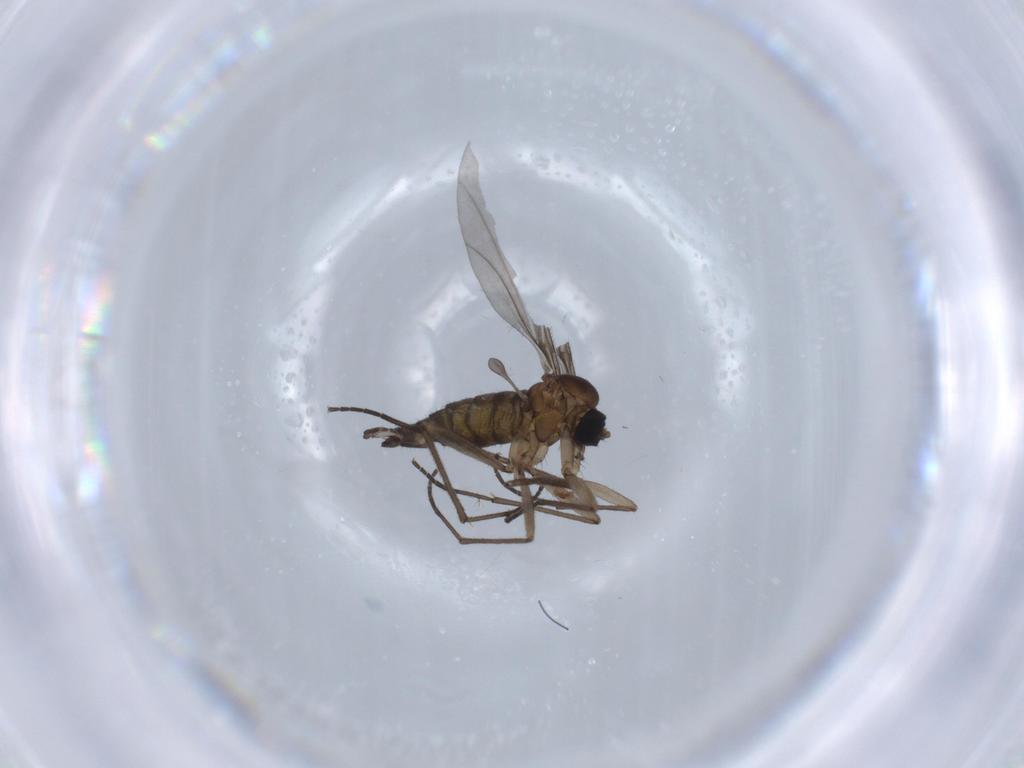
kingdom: Animalia
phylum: Arthropoda
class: Insecta
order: Diptera
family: Sciaridae
